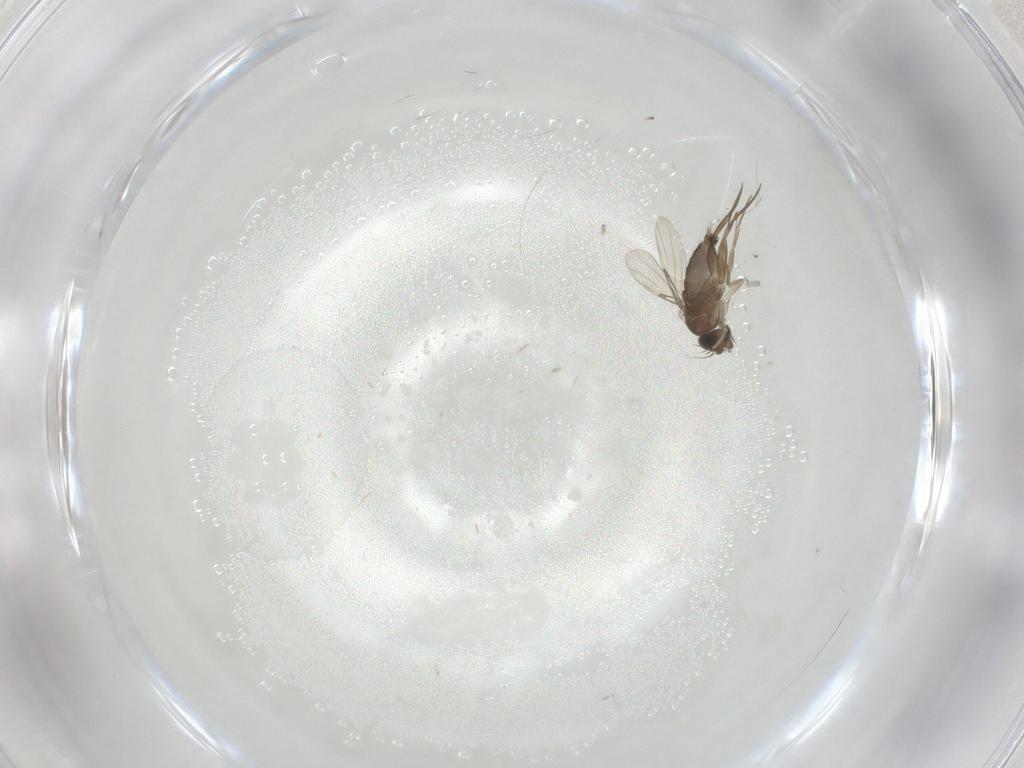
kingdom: Animalia
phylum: Arthropoda
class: Insecta
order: Diptera
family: Phoridae
